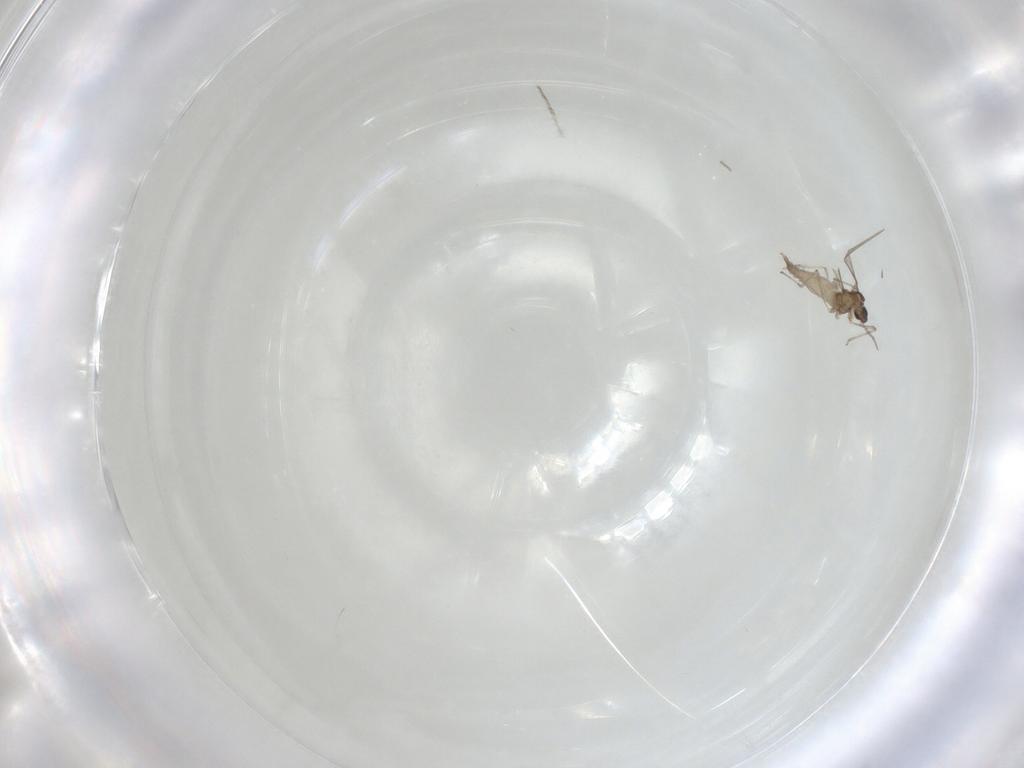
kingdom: Animalia
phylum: Arthropoda
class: Insecta
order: Diptera
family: Cecidomyiidae
